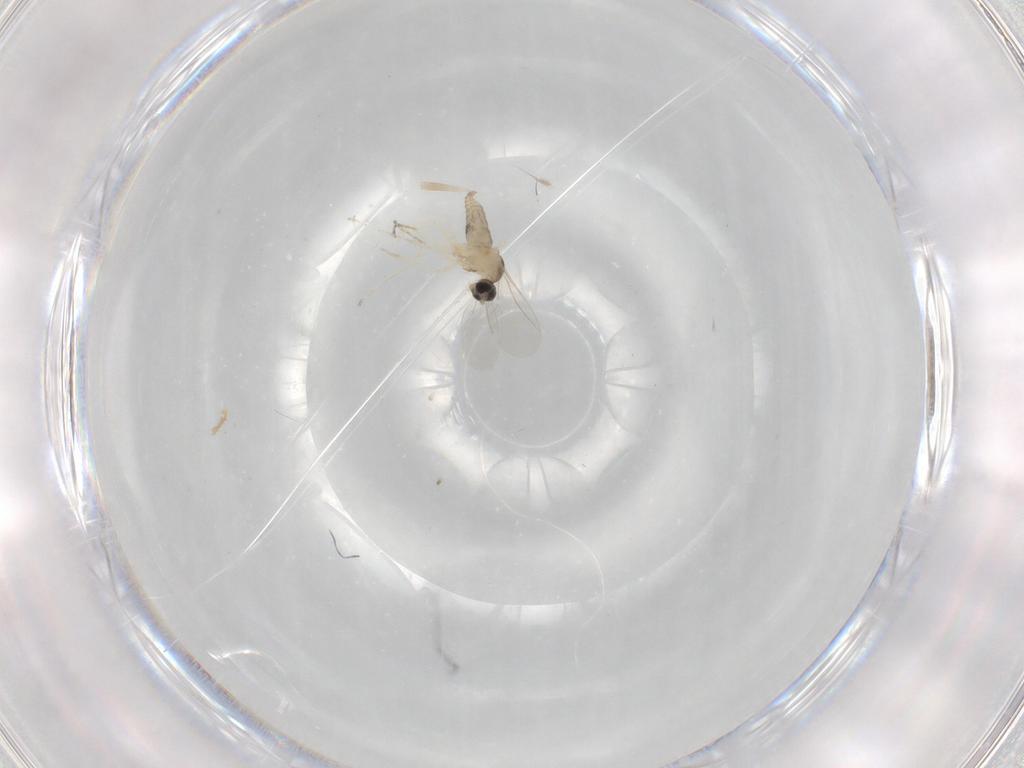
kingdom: Animalia
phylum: Arthropoda
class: Insecta
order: Diptera
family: Cecidomyiidae
